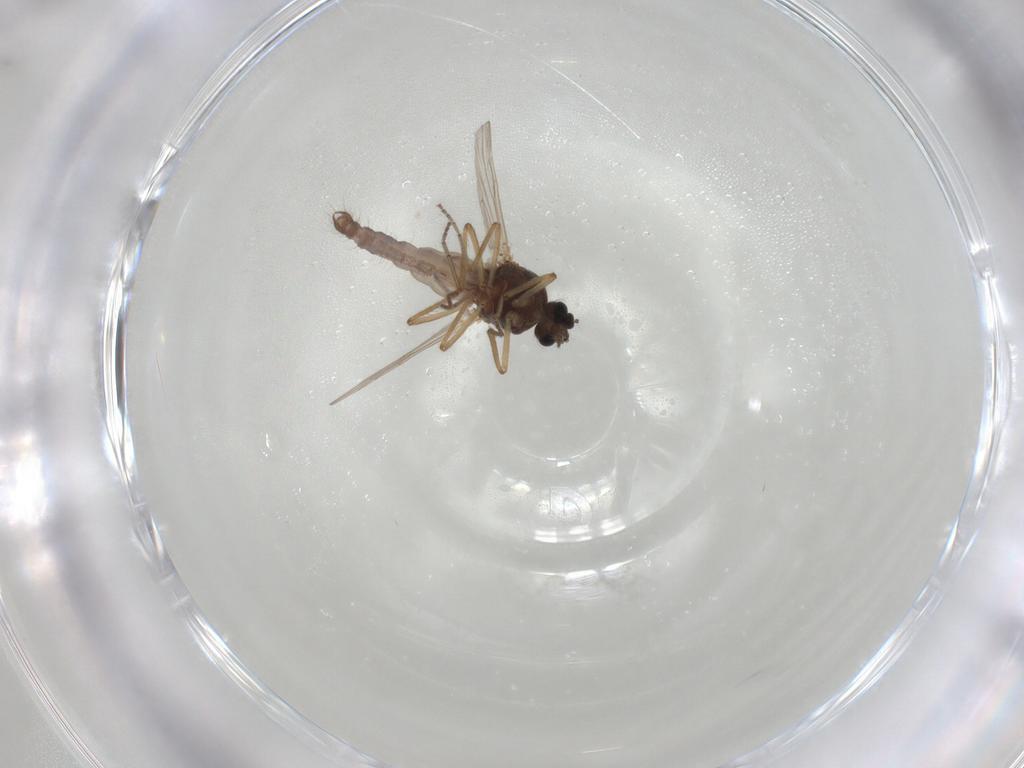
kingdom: Animalia
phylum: Arthropoda
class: Insecta
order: Diptera
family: Ceratopogonidae
